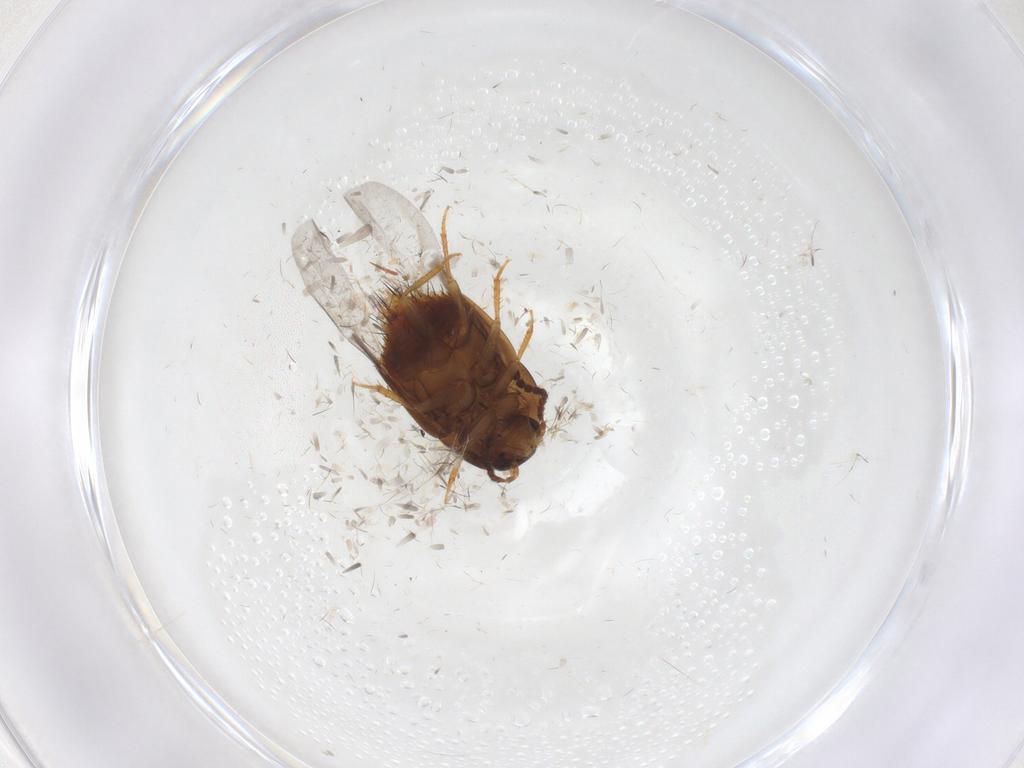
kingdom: Animalia
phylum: Arthropoda
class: Insecta
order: Coleoptera
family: Staphylinidae
